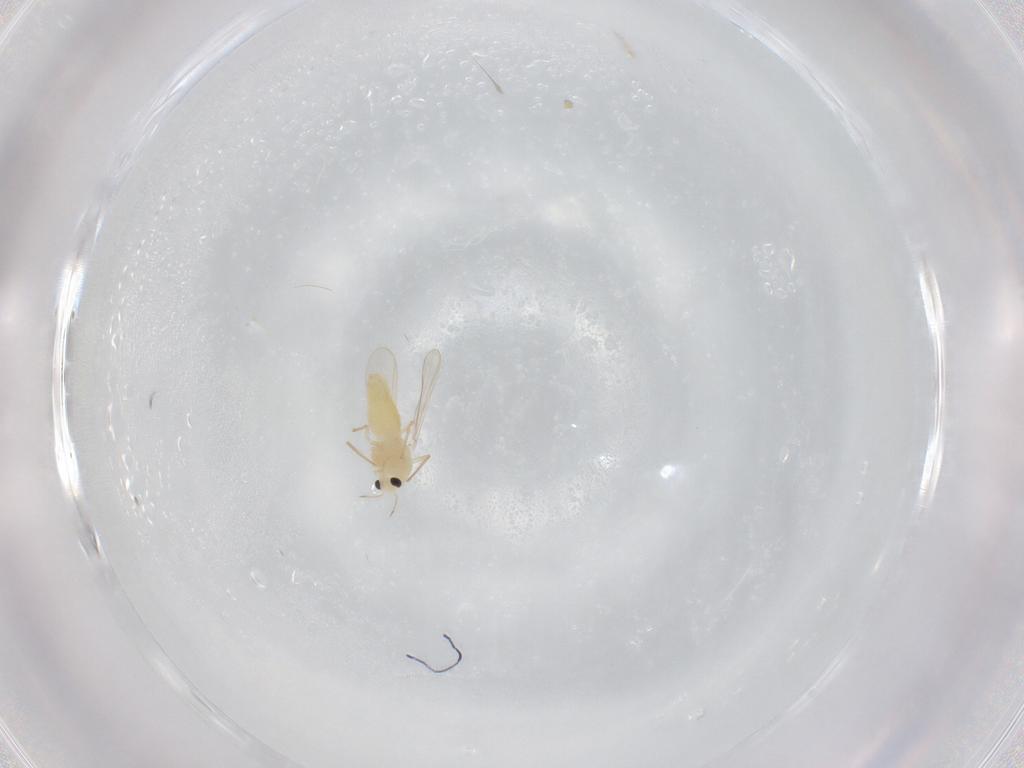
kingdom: Animalia
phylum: Arthropoda
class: Insecta
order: Diptera
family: Chironomidae
